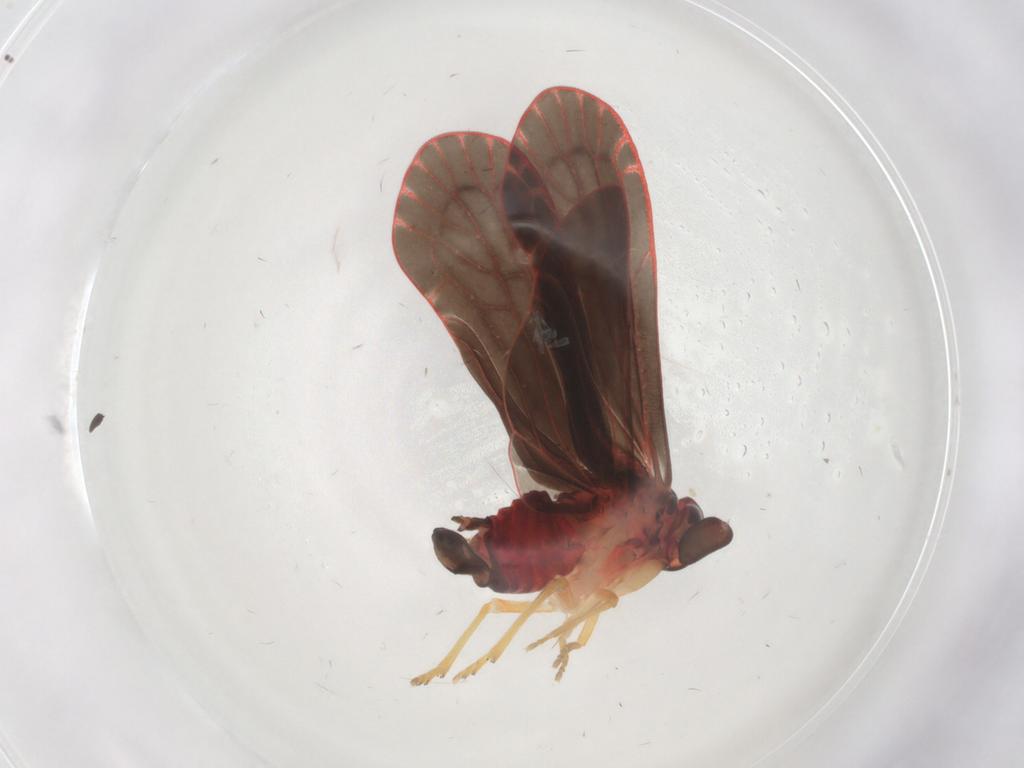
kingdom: Animalia
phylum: Arthropoda
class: Insecta
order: Hemiptera
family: Derbidae
